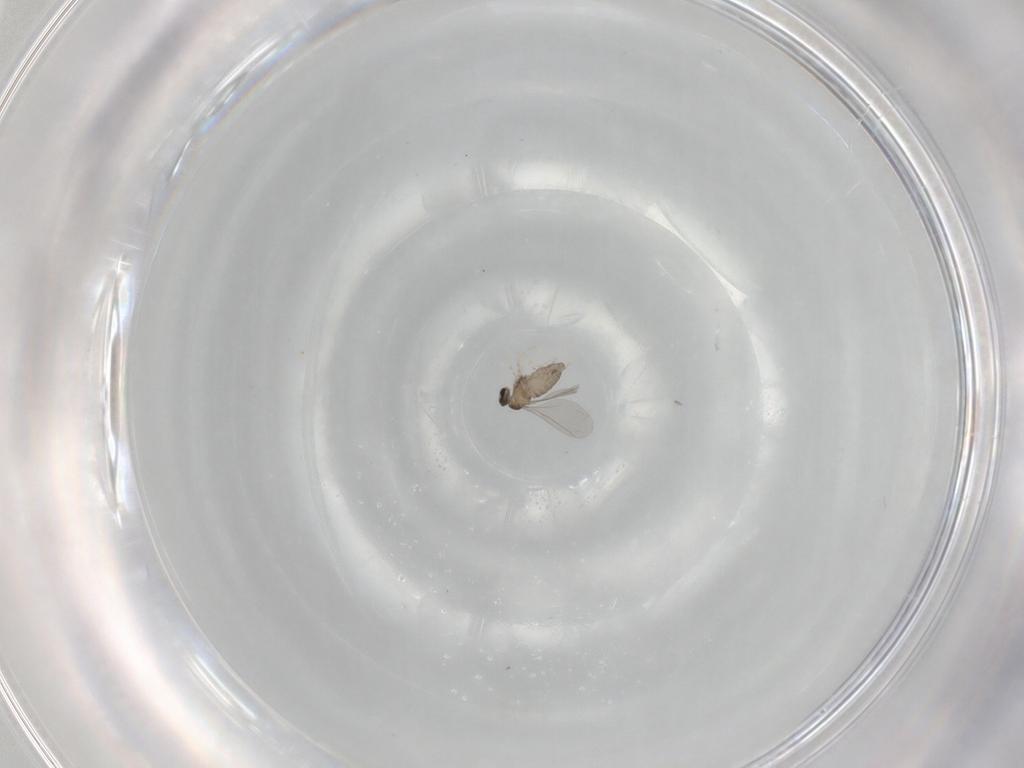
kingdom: Animalia
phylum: Arthropoda
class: Insecta
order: Diptera
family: Cecidomyiidae
